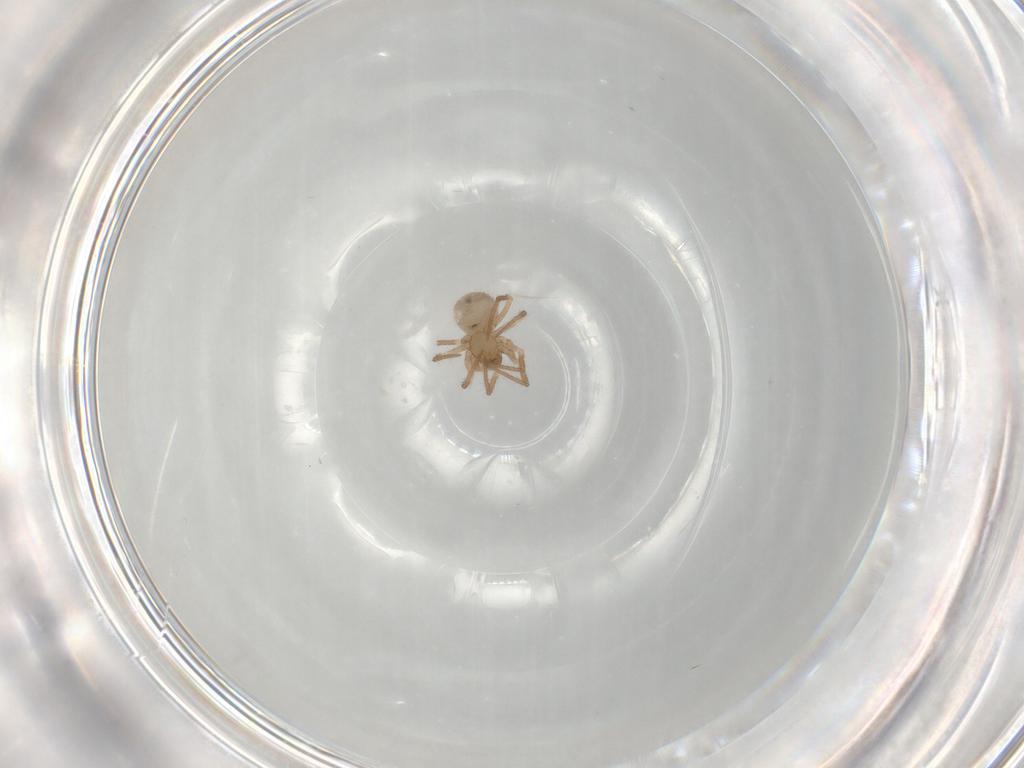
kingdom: Animalia
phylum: Arthropoda
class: Arachnida
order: Araneae
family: Symphytognathidae
